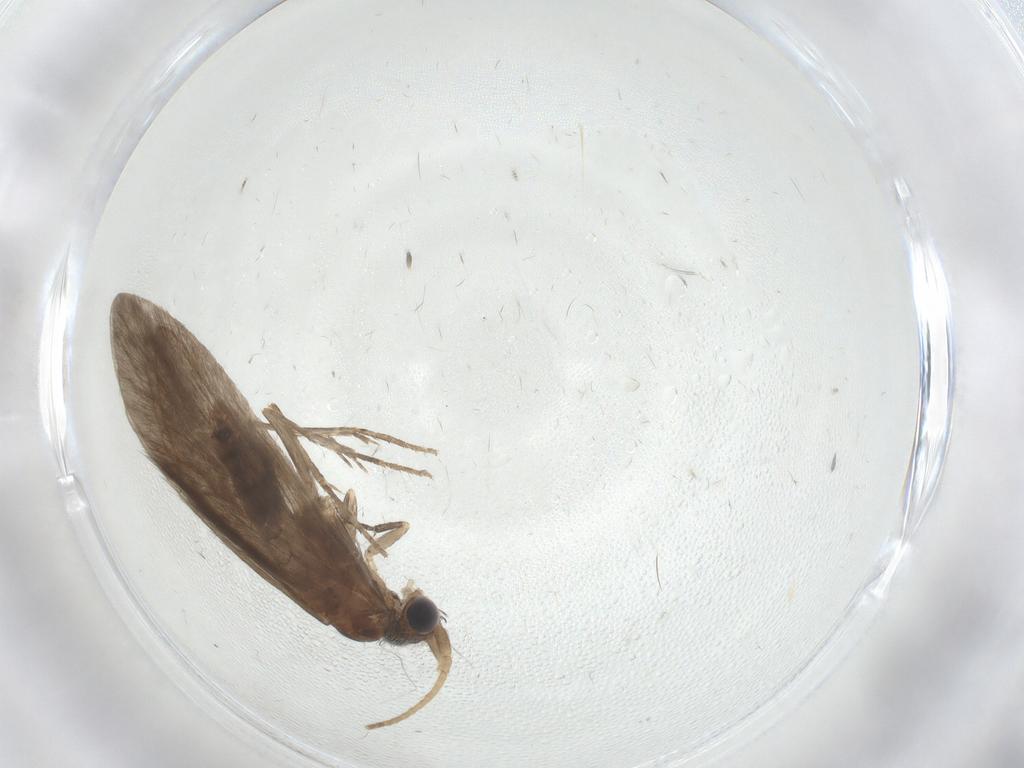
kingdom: Animalia
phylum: Arthropoda
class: Insecta
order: Trichoptera
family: Helicopsychidae
